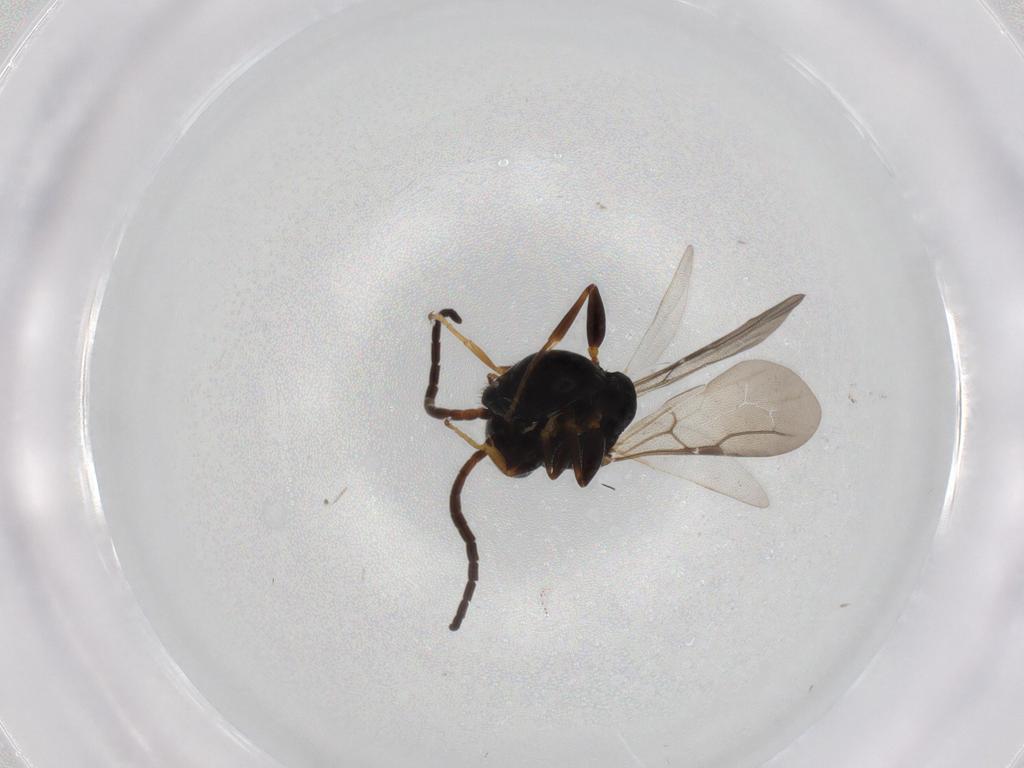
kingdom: Animalia
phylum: Arthropoda
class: Insecta
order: Hymenoptera
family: Bethylidae
